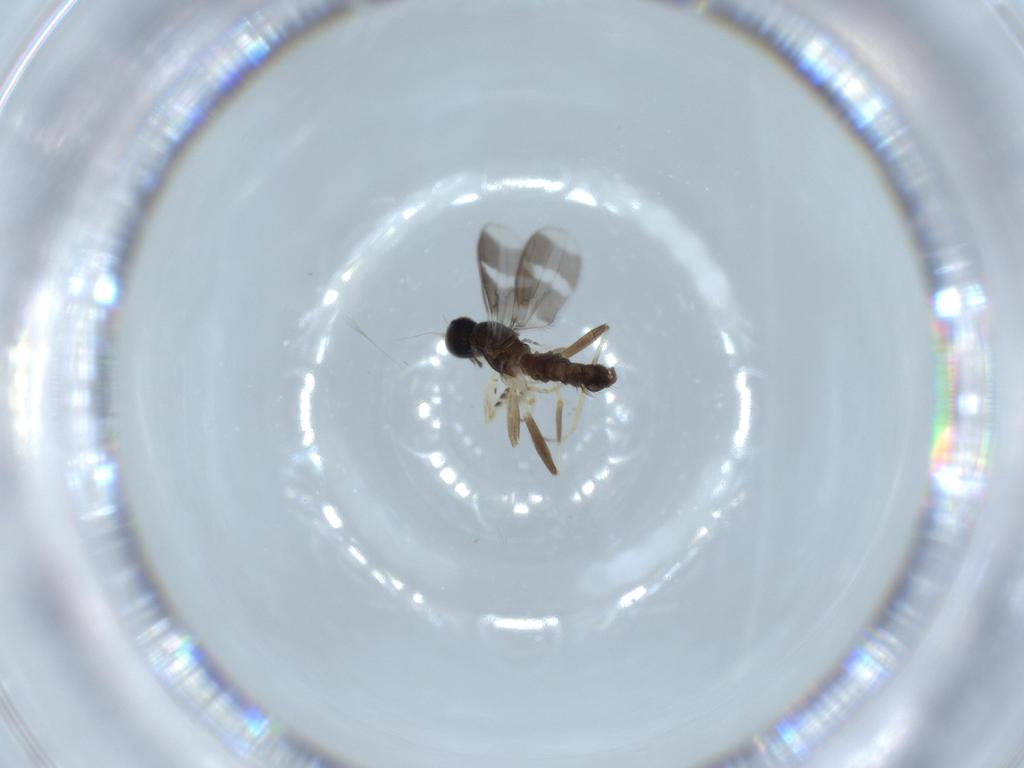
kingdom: Animalia
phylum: Arthropoda
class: Insecta
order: Diptera
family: Hybotidae
